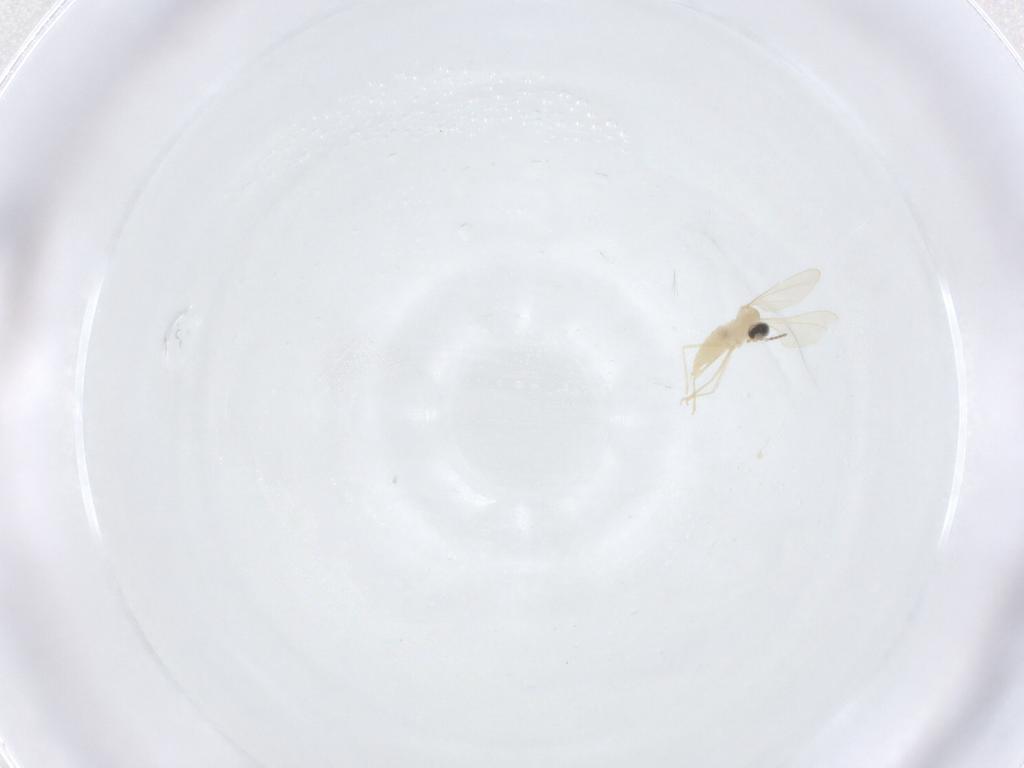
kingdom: Animalia
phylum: Arthropoda
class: Insecta
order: Diptera
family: Cecidomyiidae
